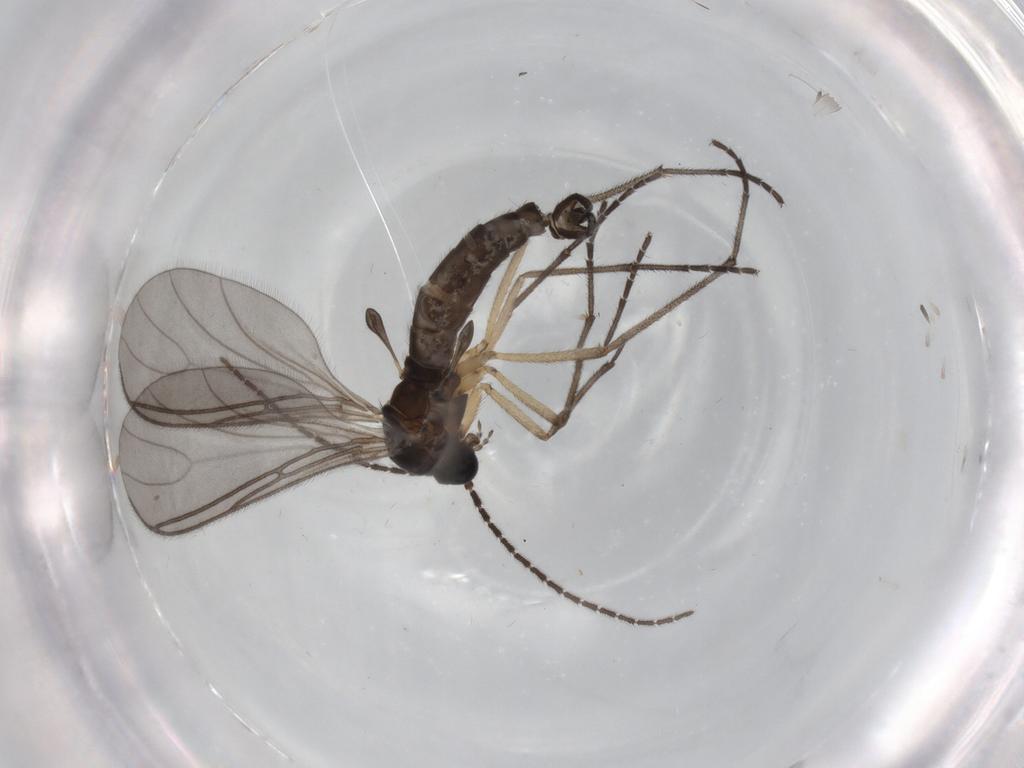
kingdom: Animalia
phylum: Arthropoda
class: Insecta
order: Diptera
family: Sciaridae
